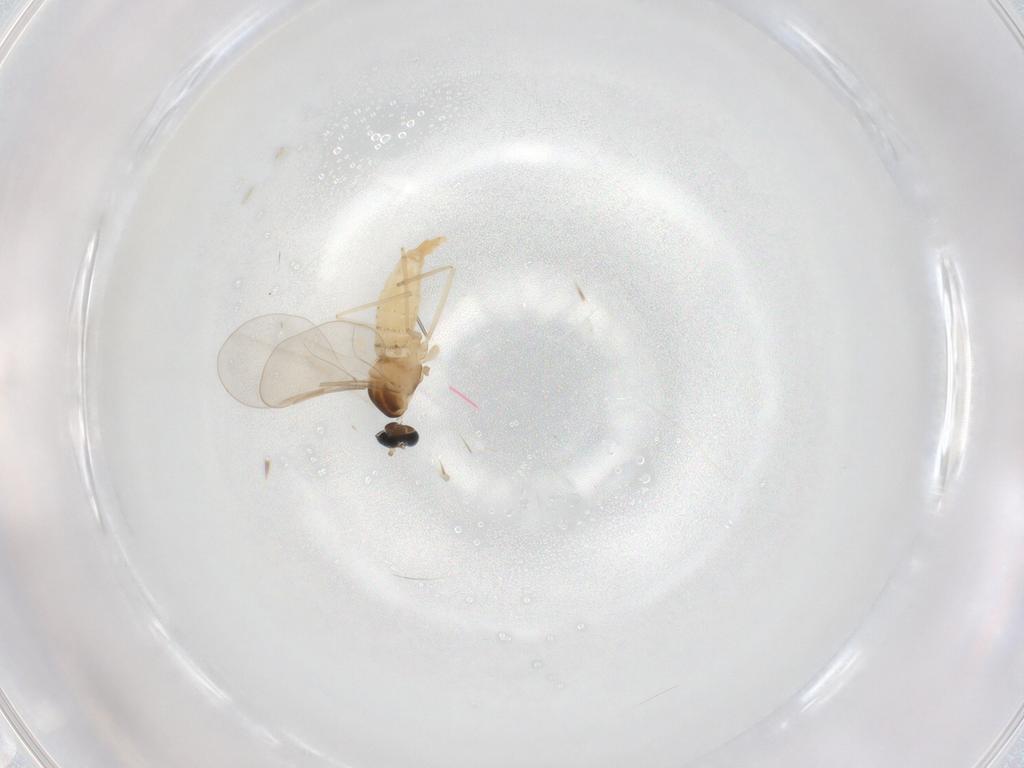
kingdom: Animalia
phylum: Arthropoda
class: Insecta
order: Diptera
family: Cecidomyiidae
